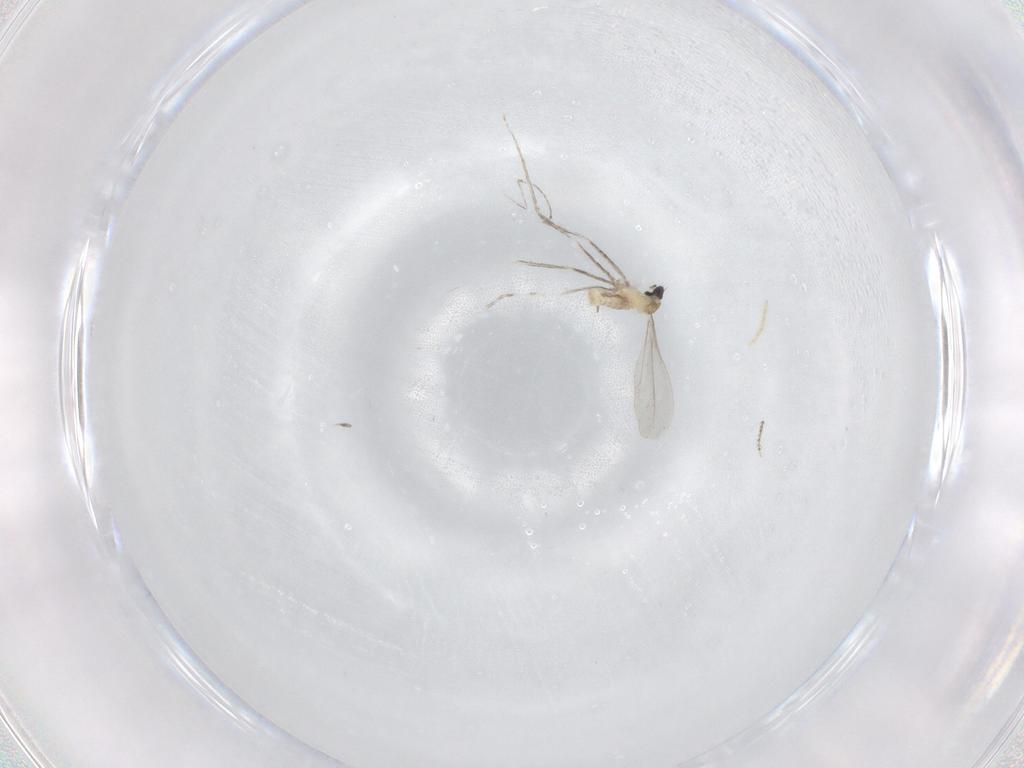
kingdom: Animalia
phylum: Arthropoda
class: Insecta
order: Diptera
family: Cecidomyiidae
